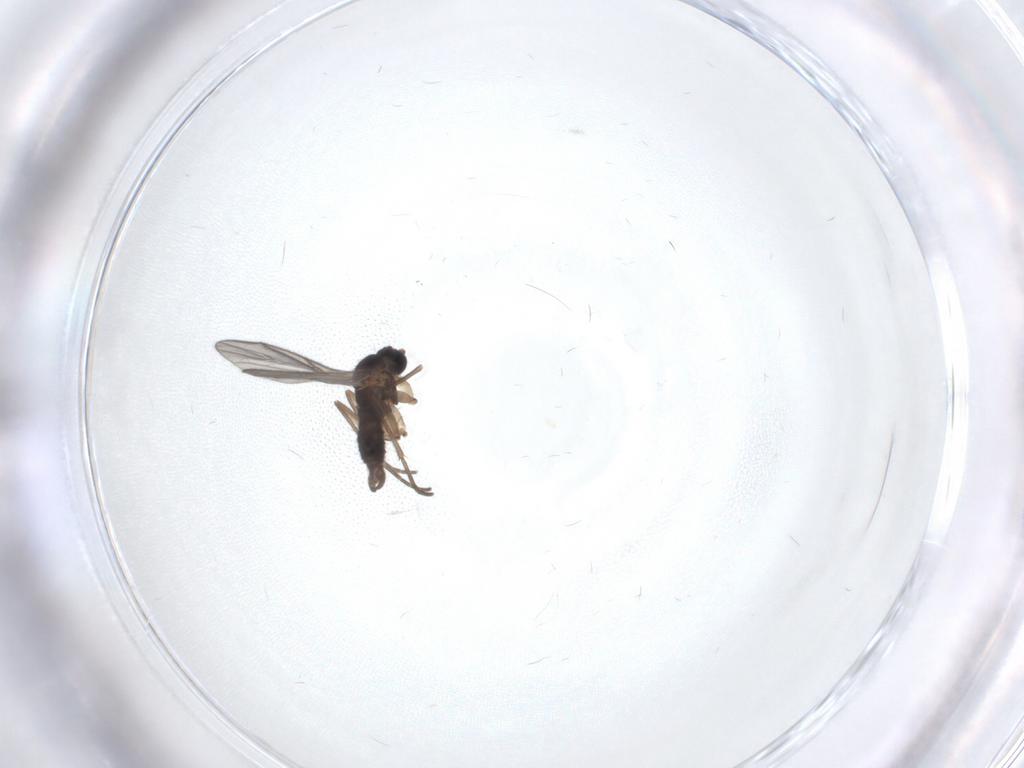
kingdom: Animalia
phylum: Arthropoda
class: Insecta
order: Diptera
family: Sciaridae
